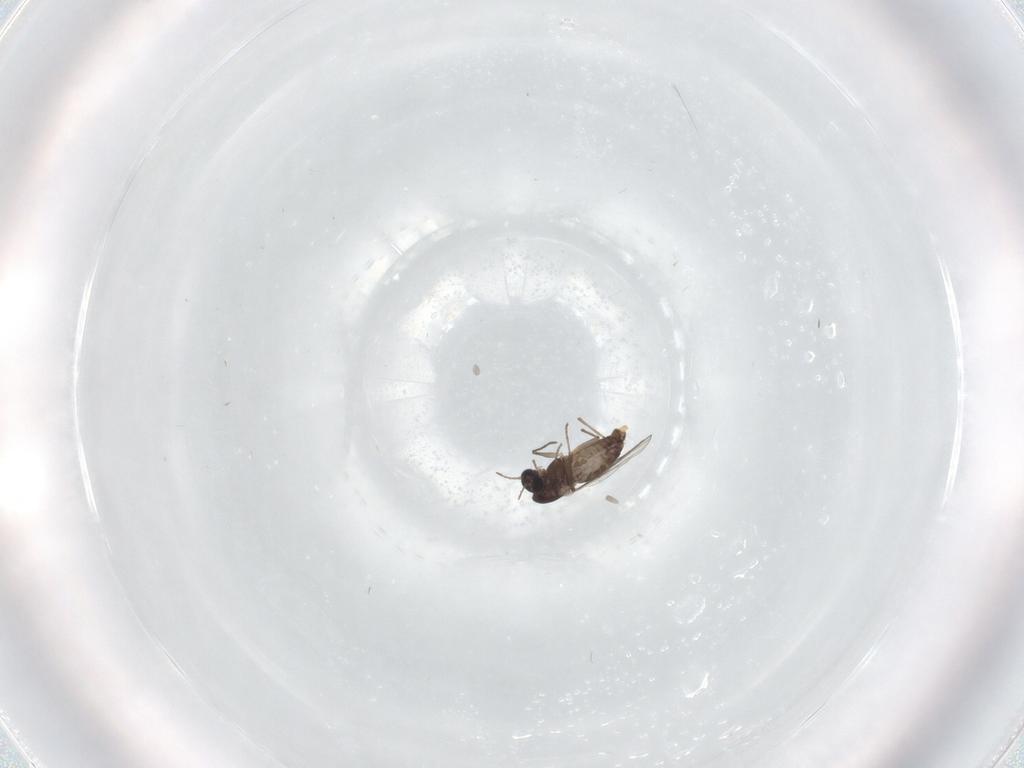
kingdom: Animalia
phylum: Arthropoda
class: Insecta
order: Diptera
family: Chironomidae
